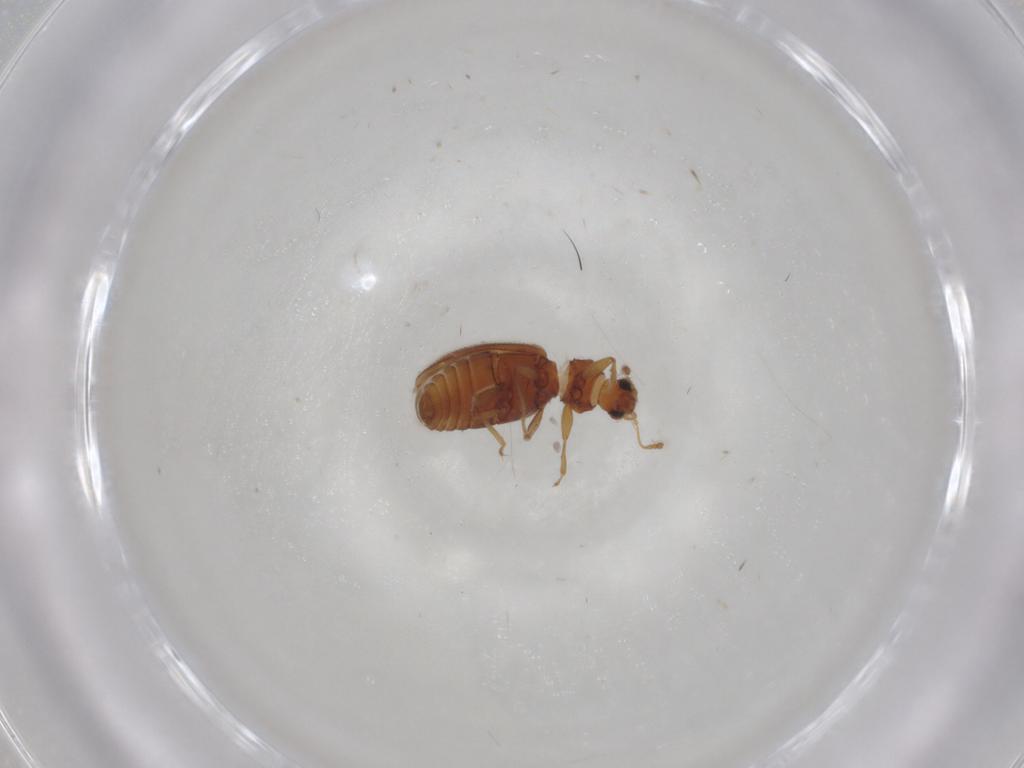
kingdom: Animalia
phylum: Arthropoda
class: Insecta
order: Coleoptera
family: Latridiidae
